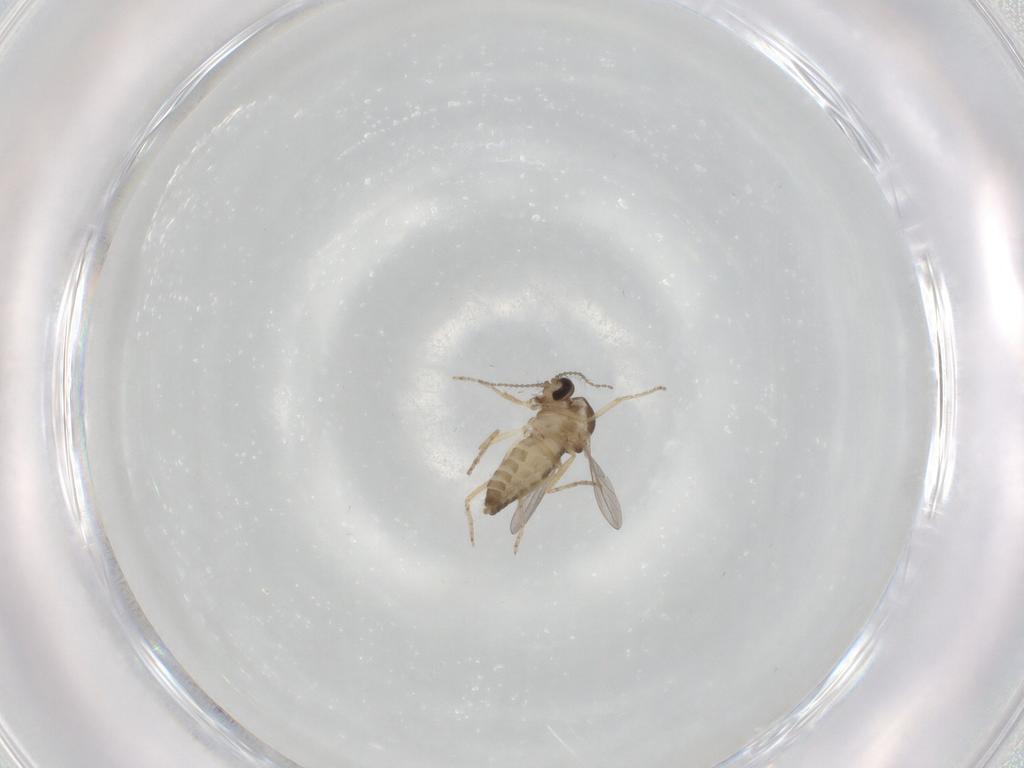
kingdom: Animalia
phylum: Arthropoda
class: Insecta
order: Diptera
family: Ceratopogonidae
